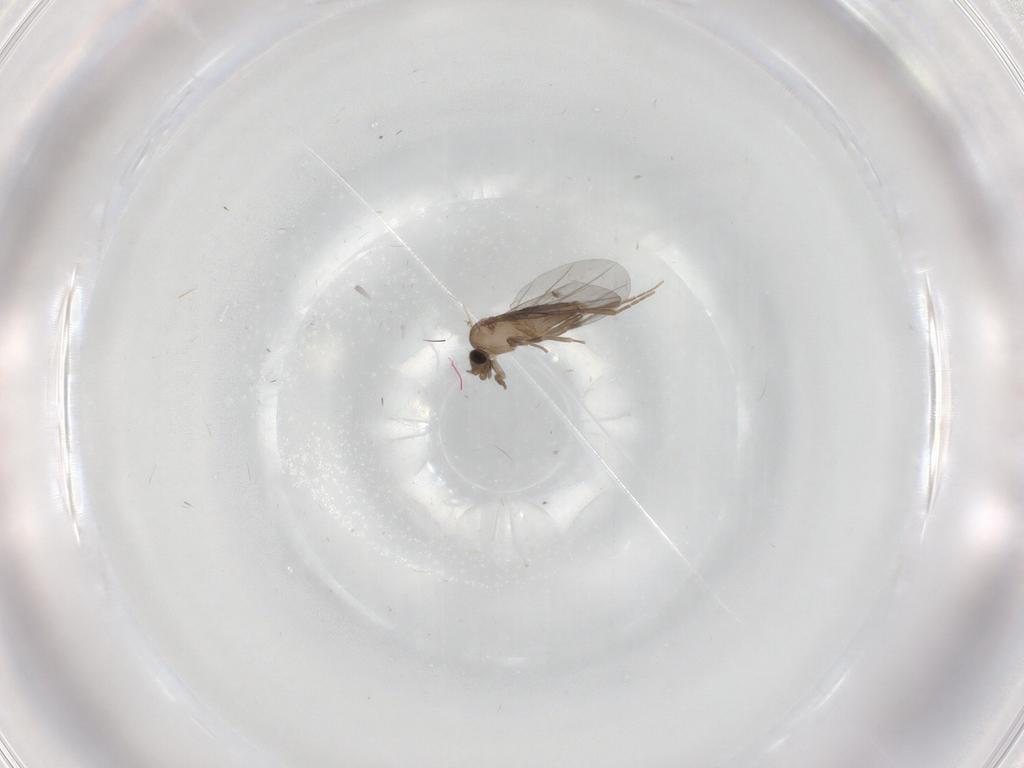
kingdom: Animalia
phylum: Arthropoda
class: Insecta
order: Diptera
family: Cecidomyiidae
